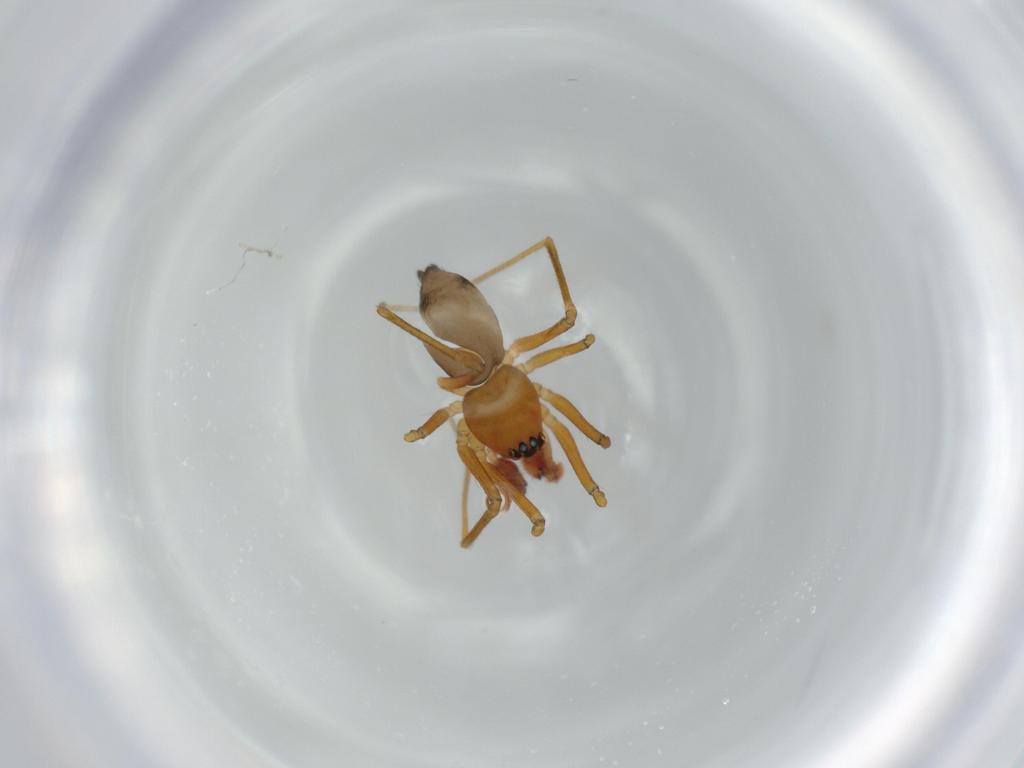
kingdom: Animalia
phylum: Arthropoda
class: Arachnida
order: Araneae
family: Linyphiidae
